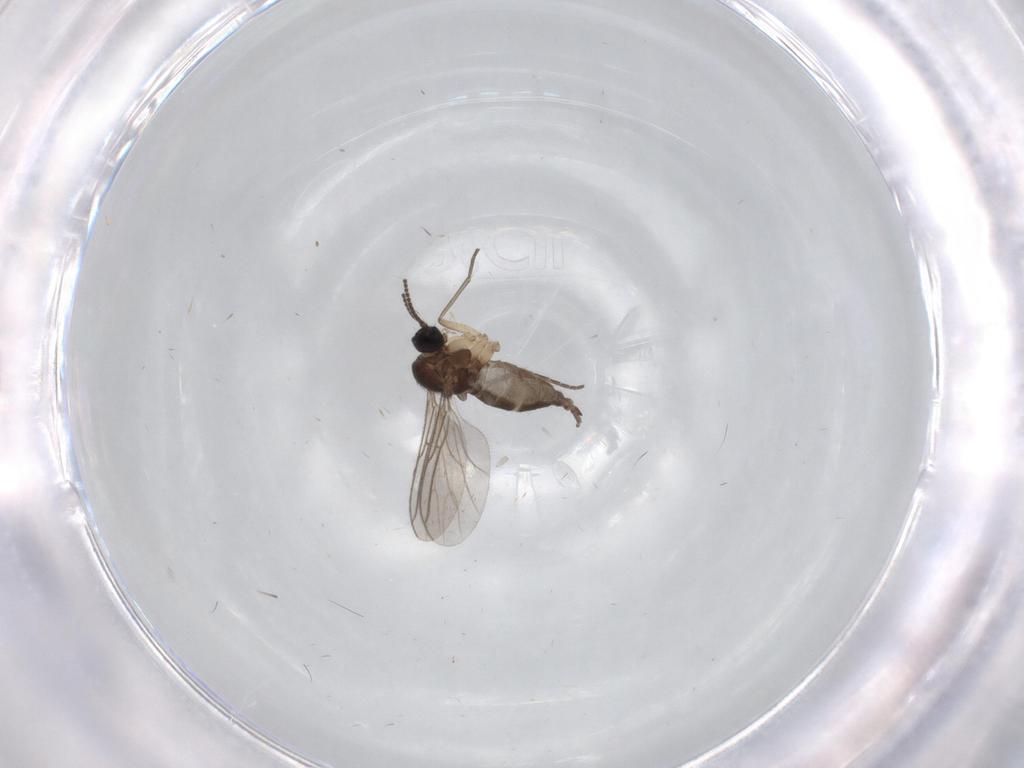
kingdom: Animalia
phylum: Arthropoda
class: Insecta
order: Diptera
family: Sciaridae
